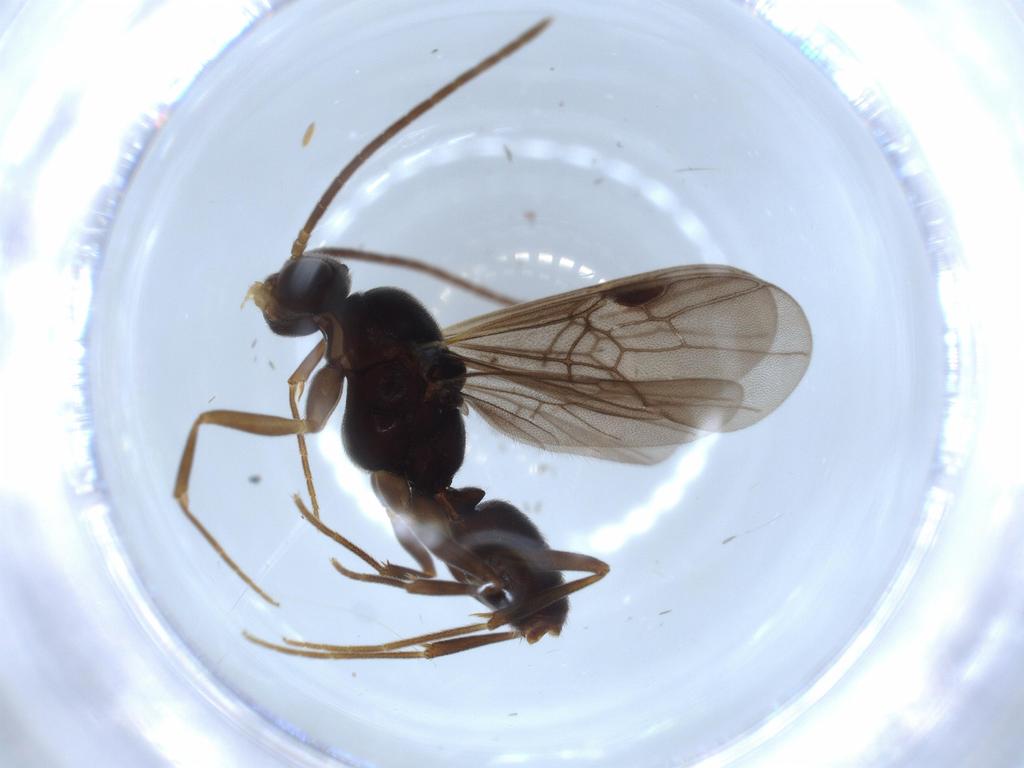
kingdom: Animalia
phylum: Arthropoda
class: Insecta
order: Hymenoptera
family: Formicidae
